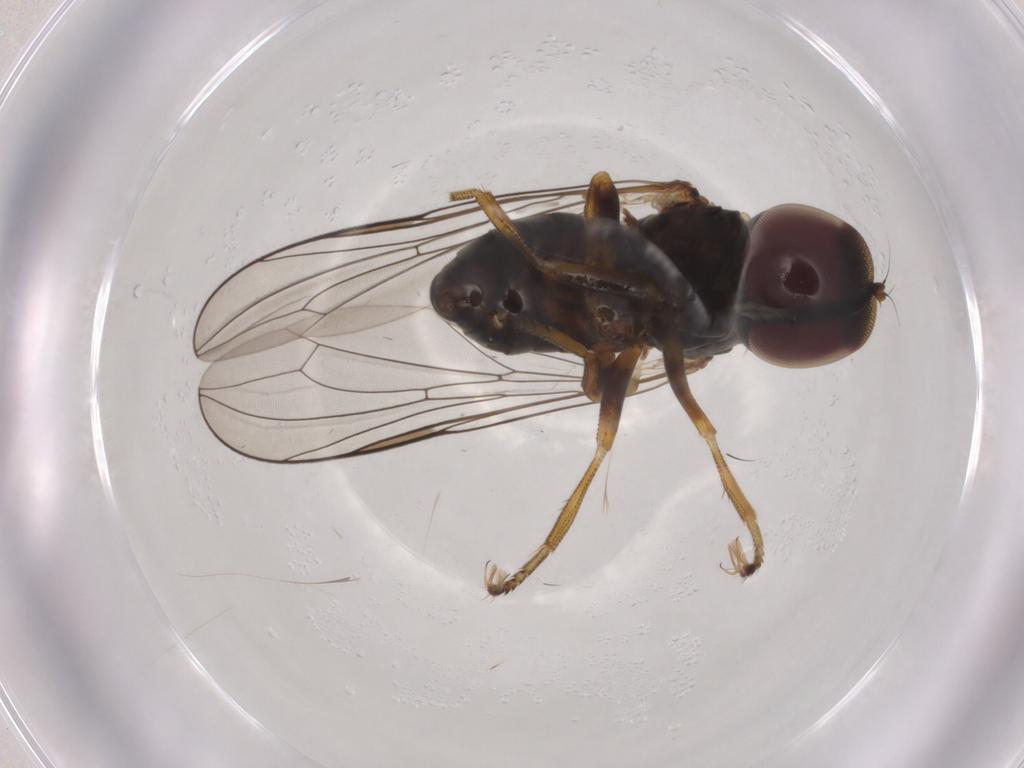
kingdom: Animalia
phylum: Arthropoda
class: Insecta
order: Diptera
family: Pipunculidae
